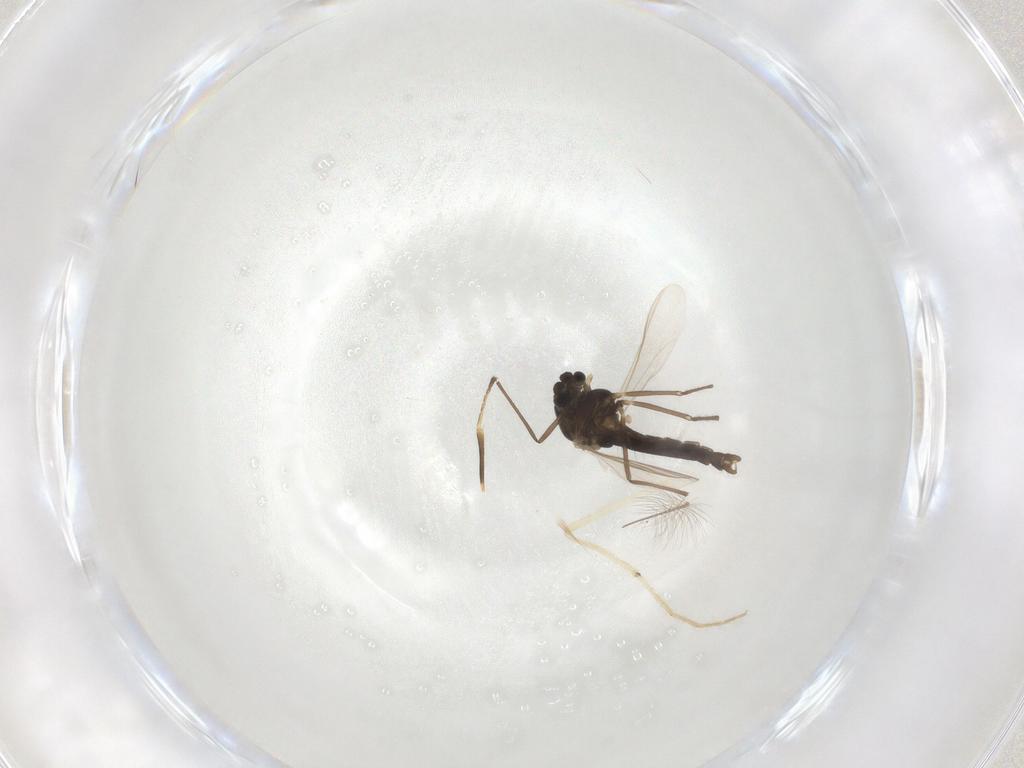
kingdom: Animalia
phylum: Arthropoda
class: Insecta
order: Diptera
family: Chironomidae
